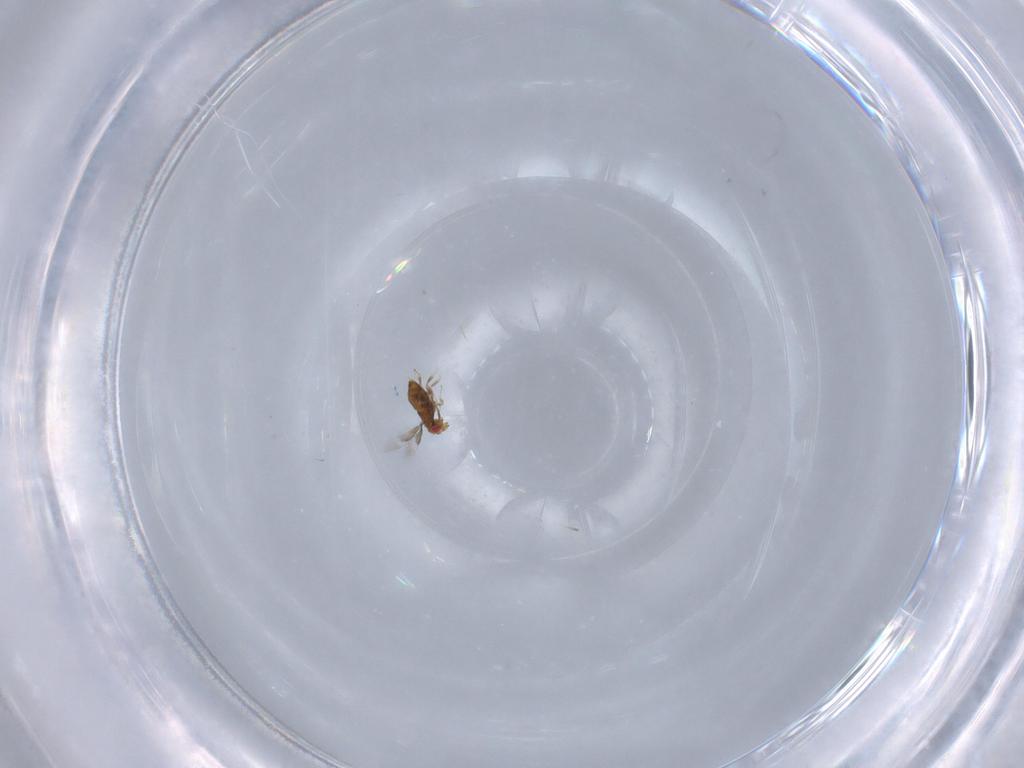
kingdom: Animalia
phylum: Arthropoda
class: Insecta
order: Hymenoptera
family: Trichogrammatidae
